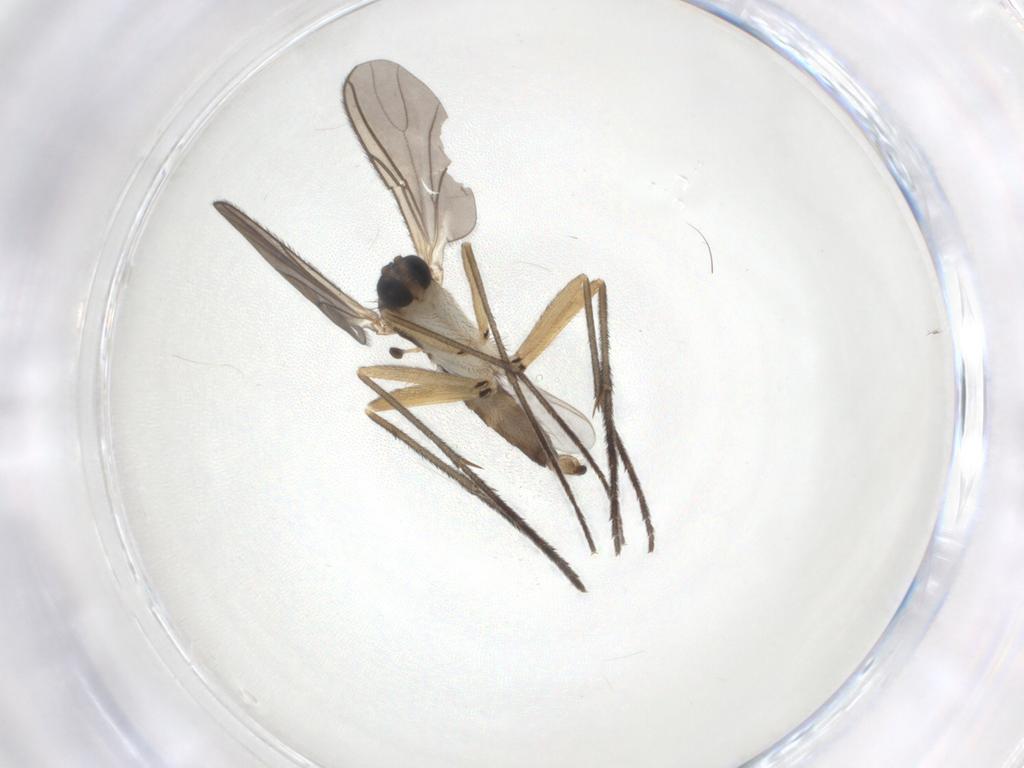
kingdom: Animalia
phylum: Arthropoda
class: Insecta
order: Diptera
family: Sciaridae
